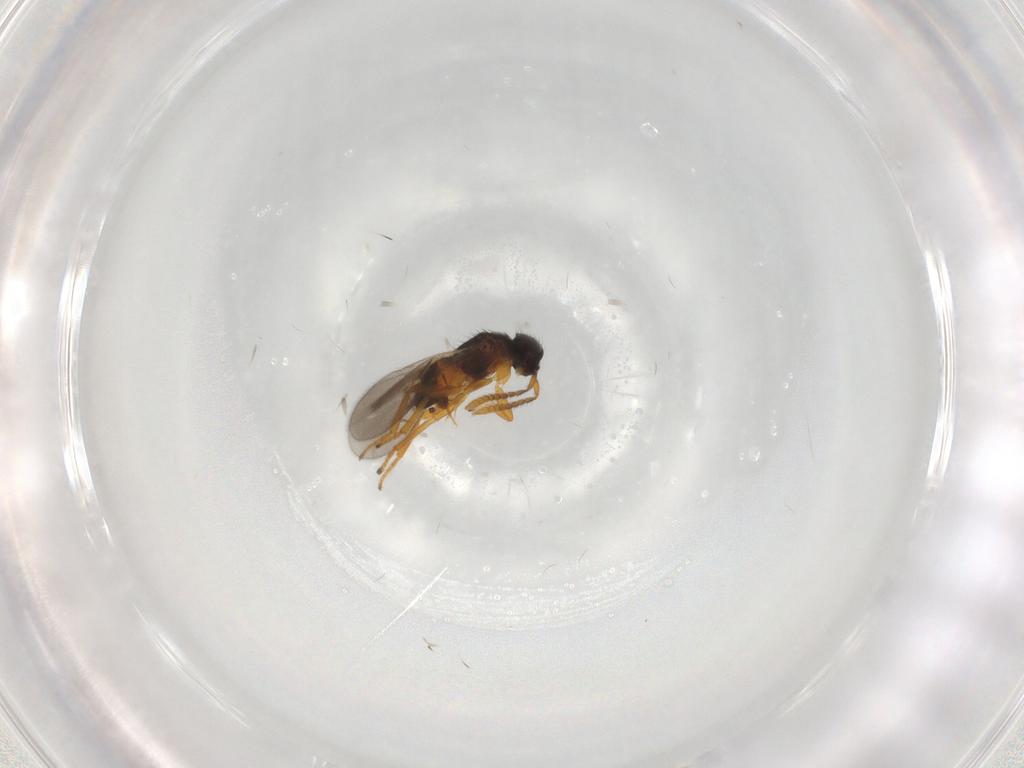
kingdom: Animalia
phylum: Arthropoda
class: Insecta
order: Hymenoptera
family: Encyrtidae
